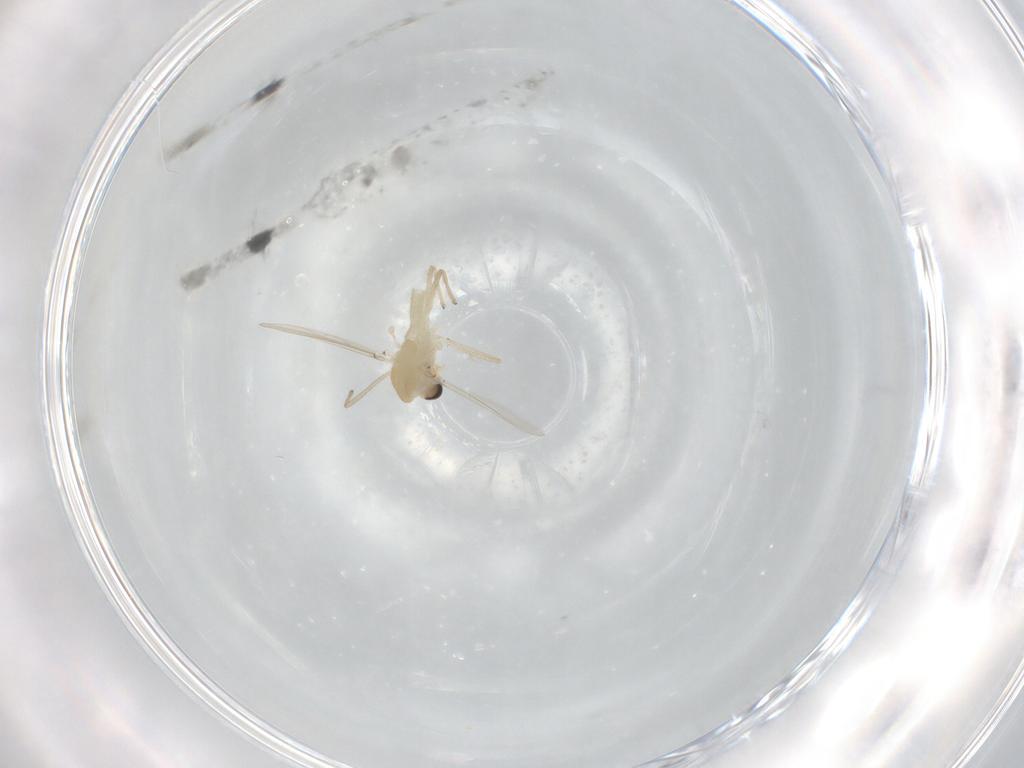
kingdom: Animalia
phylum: Arthropoda
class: Insecta
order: Diptera
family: Chironomidae
